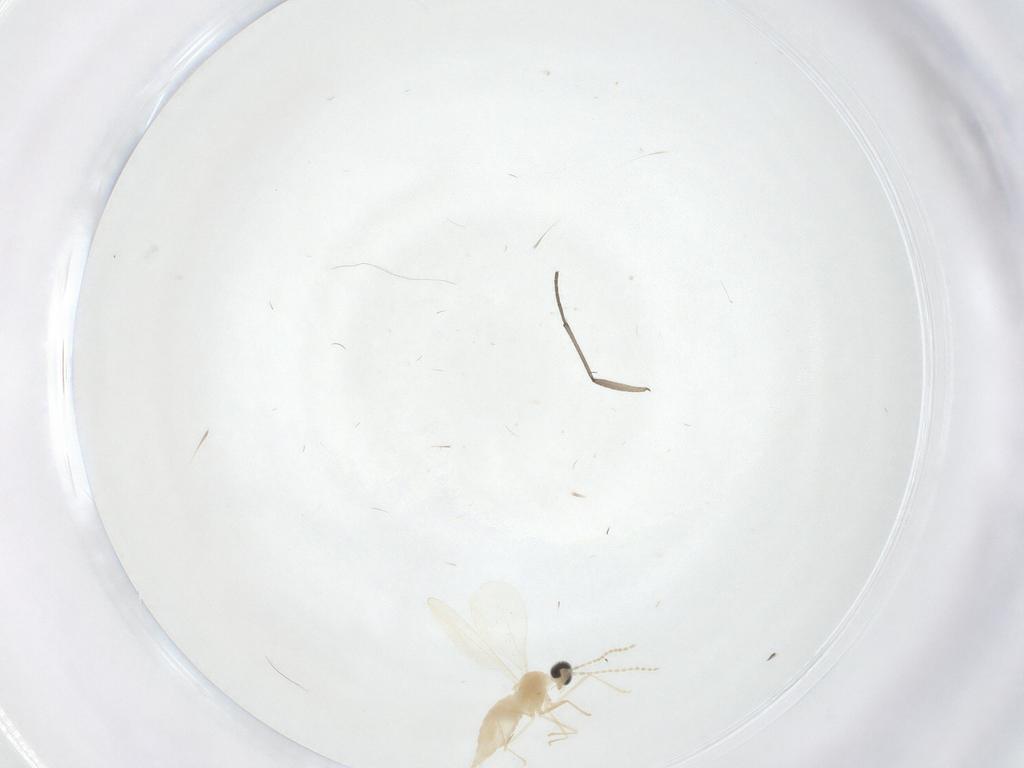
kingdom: Animalia
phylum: Arthropoda
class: Insecta
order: Diptera
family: Cecidomyiidae
